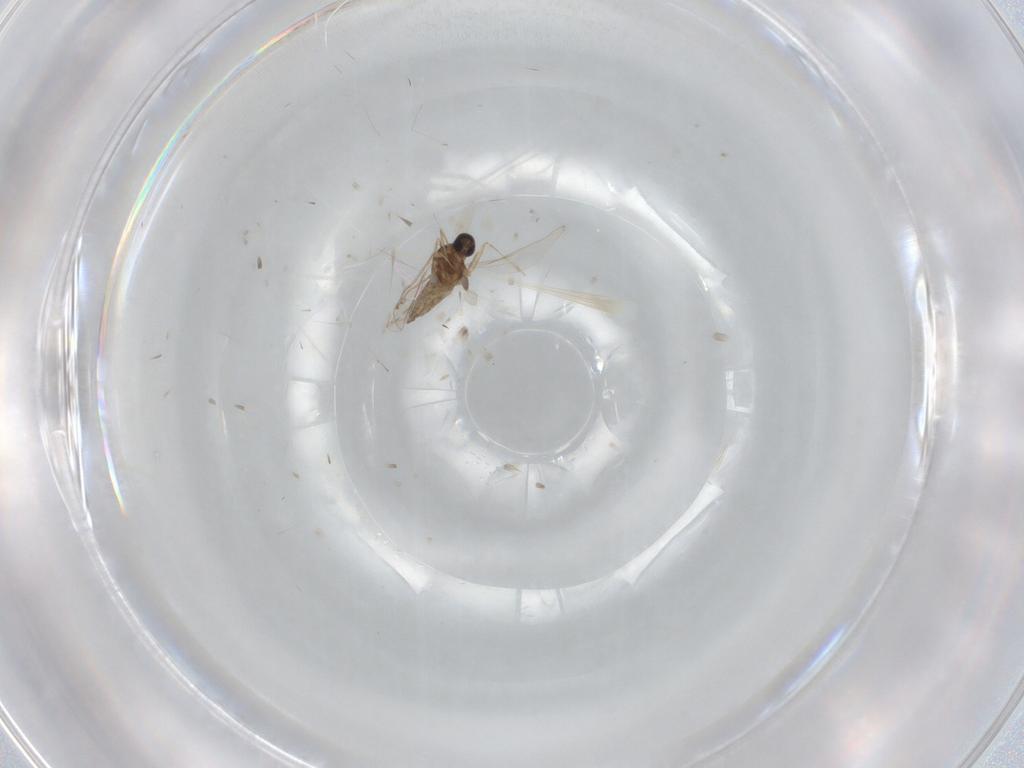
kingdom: Animalia
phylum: Arthropoda
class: Insecta
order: Diptera
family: Cecidomyiidae
